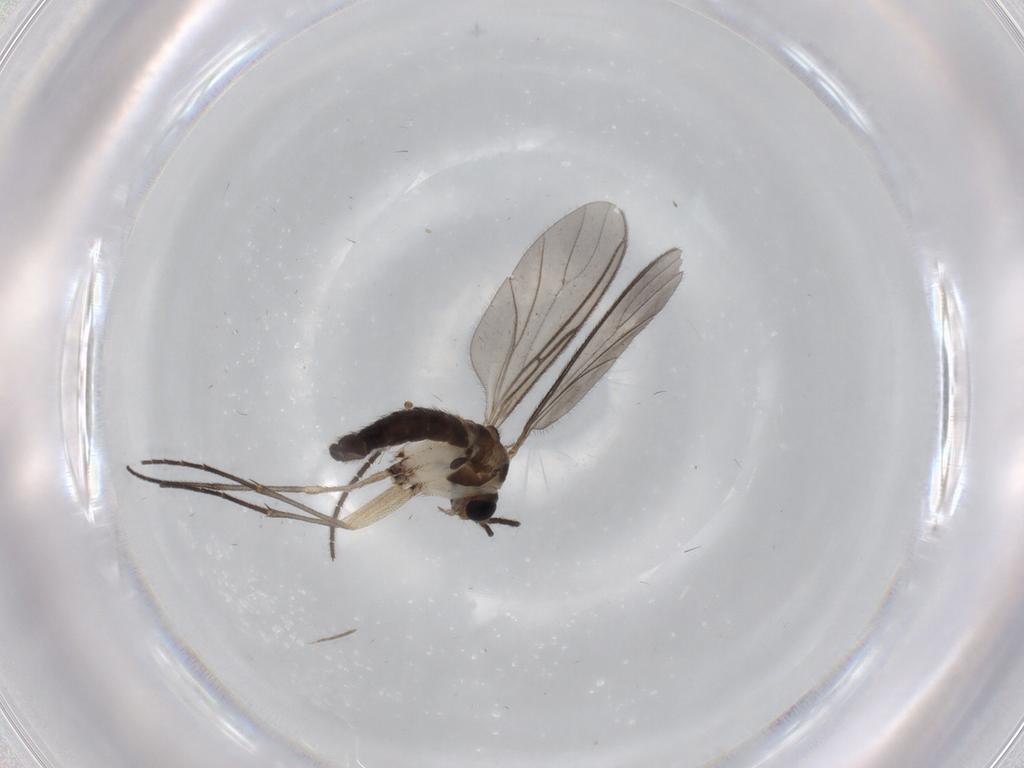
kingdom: Animalia
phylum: Arthropoda
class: Insecta
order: Diptera
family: Sciaridae
